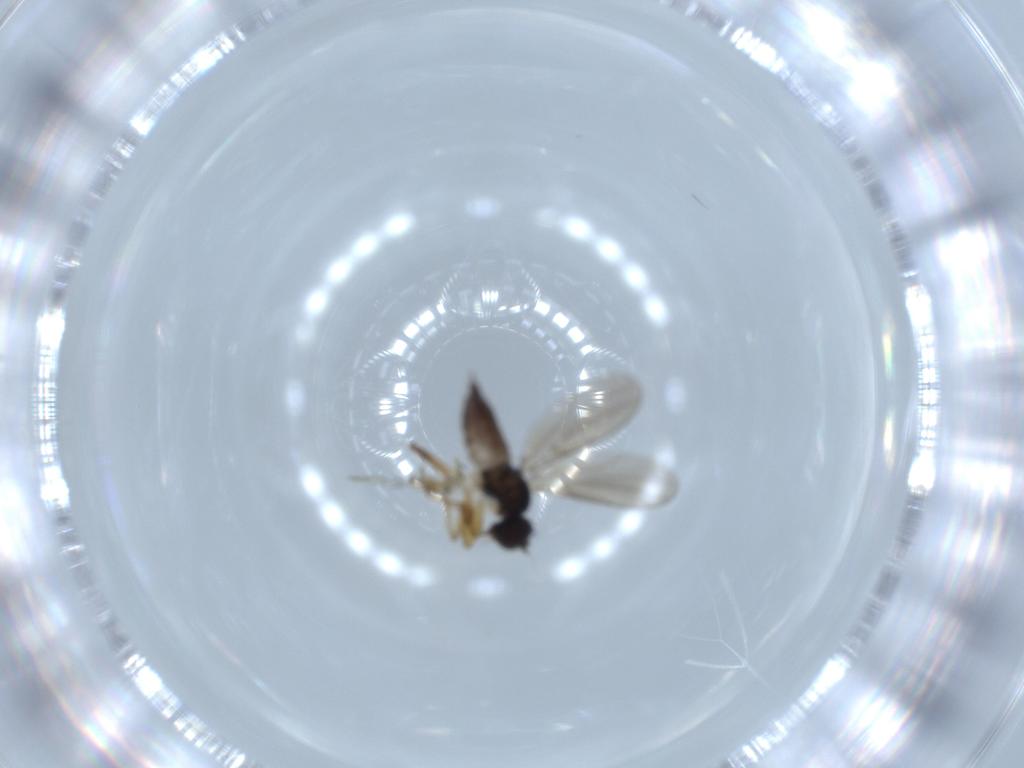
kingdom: Animalia
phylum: Arthropoda
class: Insecta
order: Diptera
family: Hybotidae
